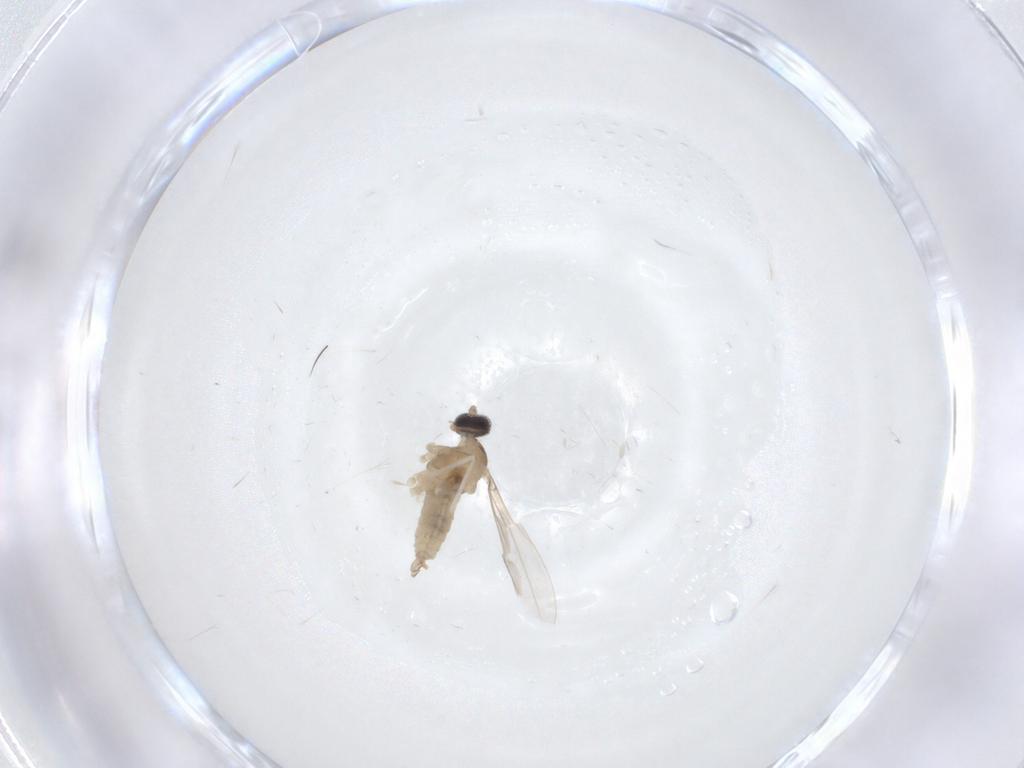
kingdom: Animalia
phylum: Arthropoda
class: Insecta
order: Diptera
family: Cecidomyiidae
